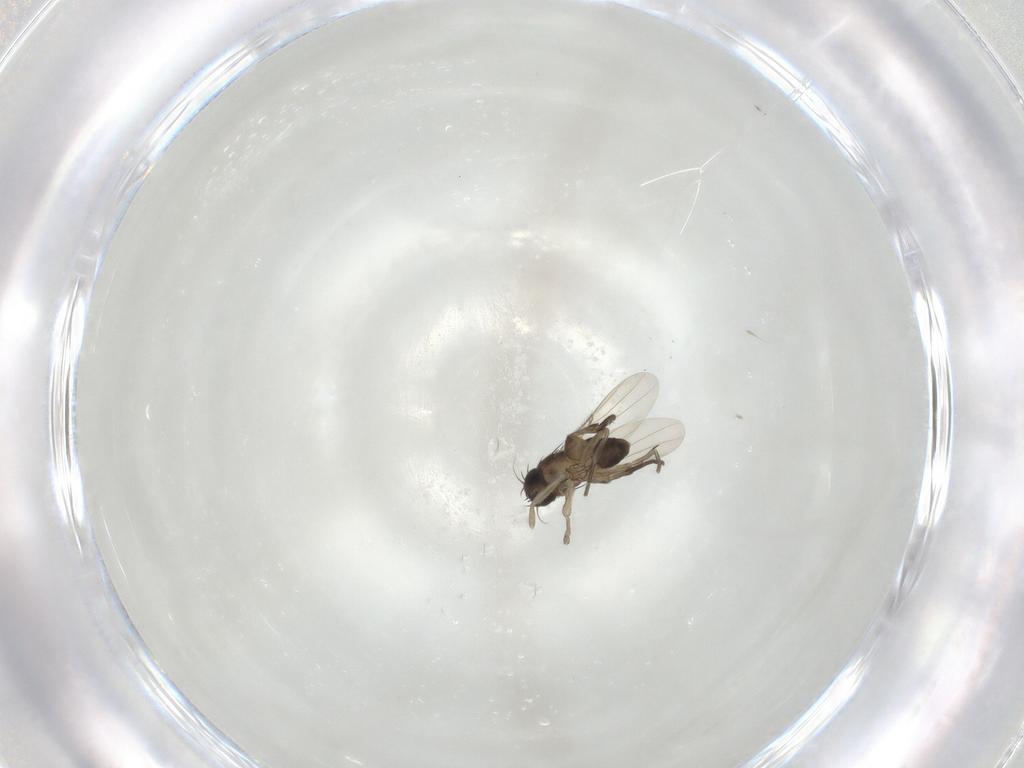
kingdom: Animalia
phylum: Arthropoda
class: Insecta
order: Diptera
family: Phoridae
